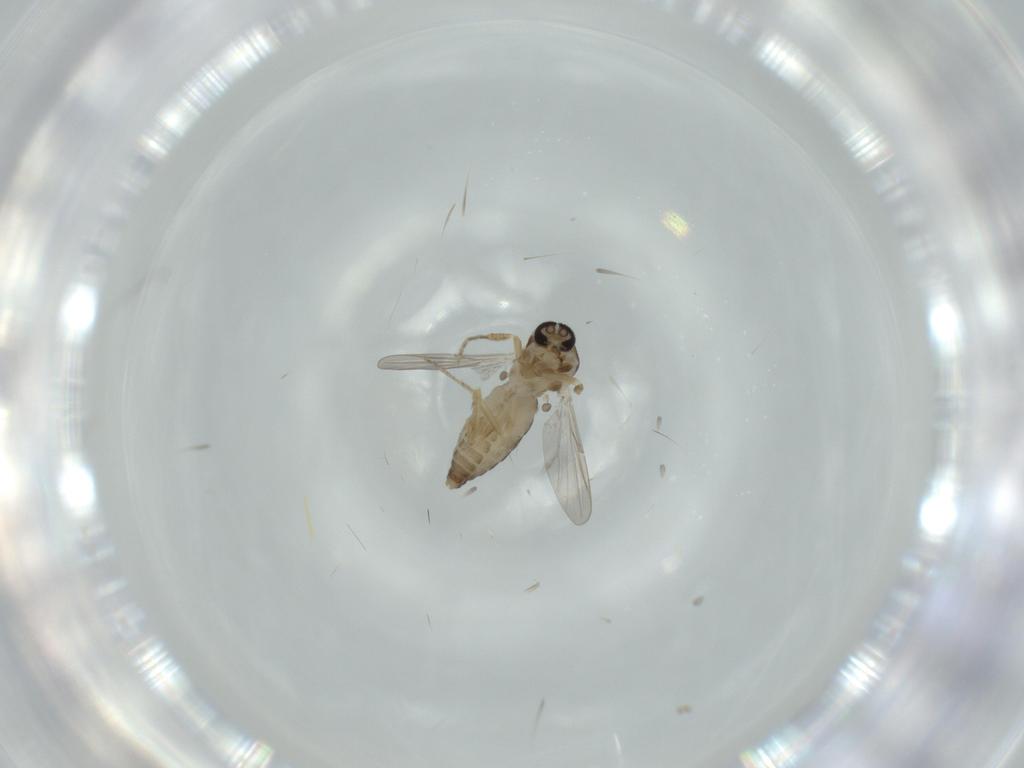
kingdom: Animalia
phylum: Arthropoda
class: Insecta
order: Diptera
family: Ceratopogonidae
